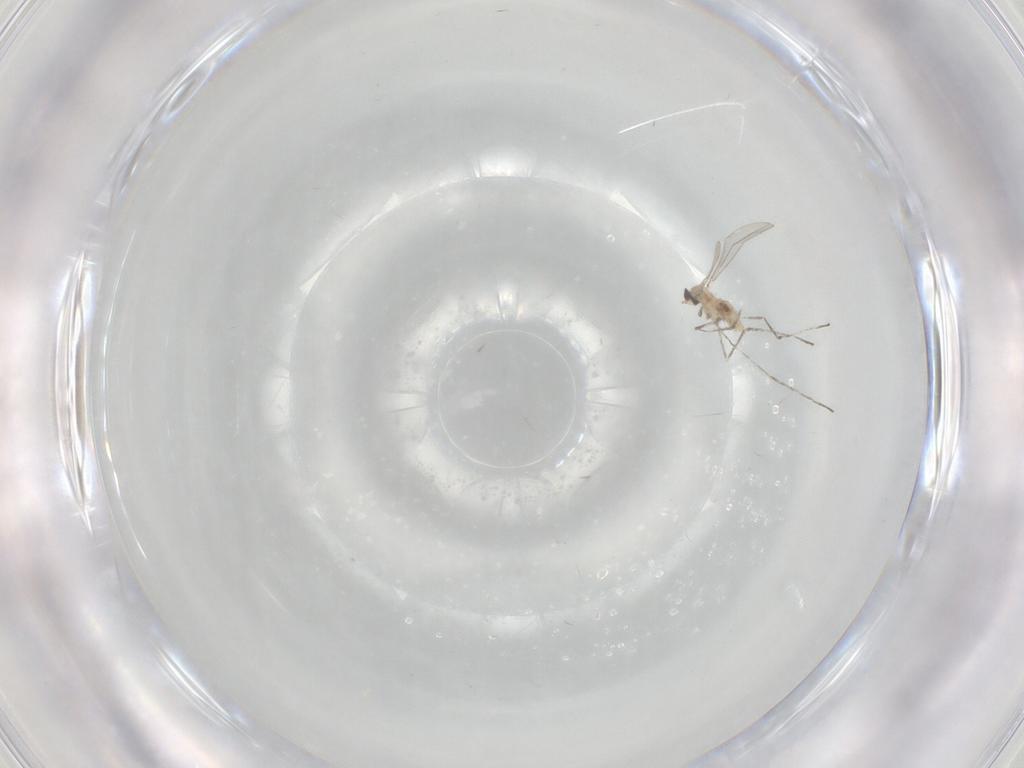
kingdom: Animalia
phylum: Arthropoda
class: Insecta
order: Diptera
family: Cecidomyiidae
